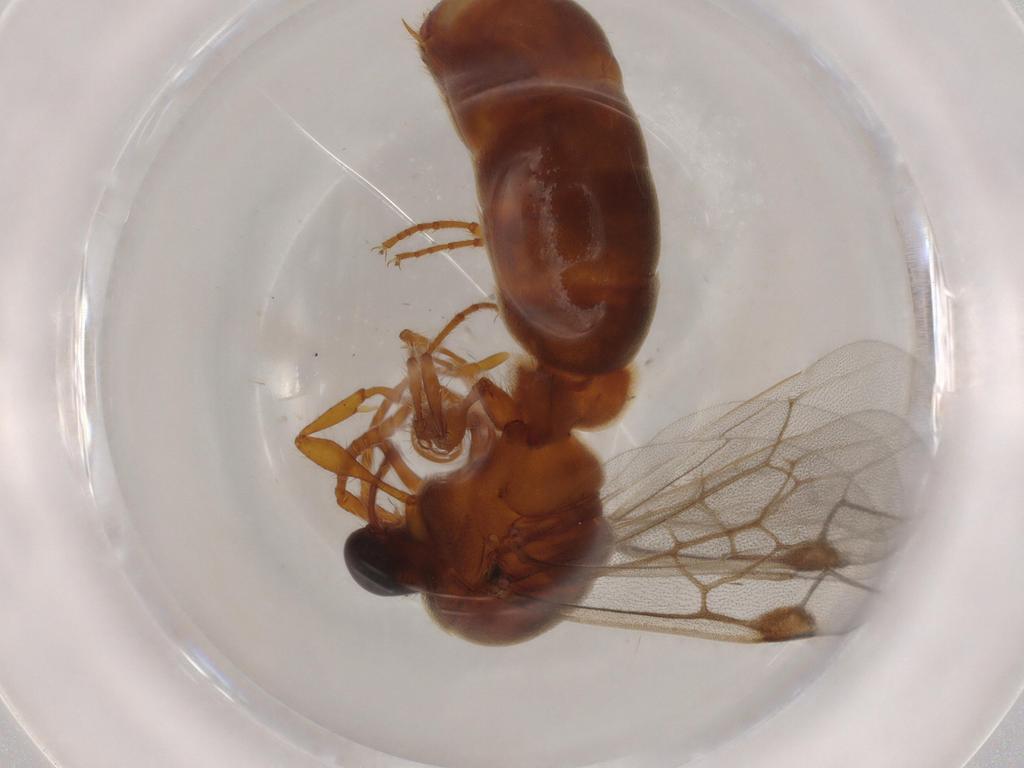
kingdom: Animalia
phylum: Arthropoda
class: Insecta
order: Hymenoptera
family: Formicidae
